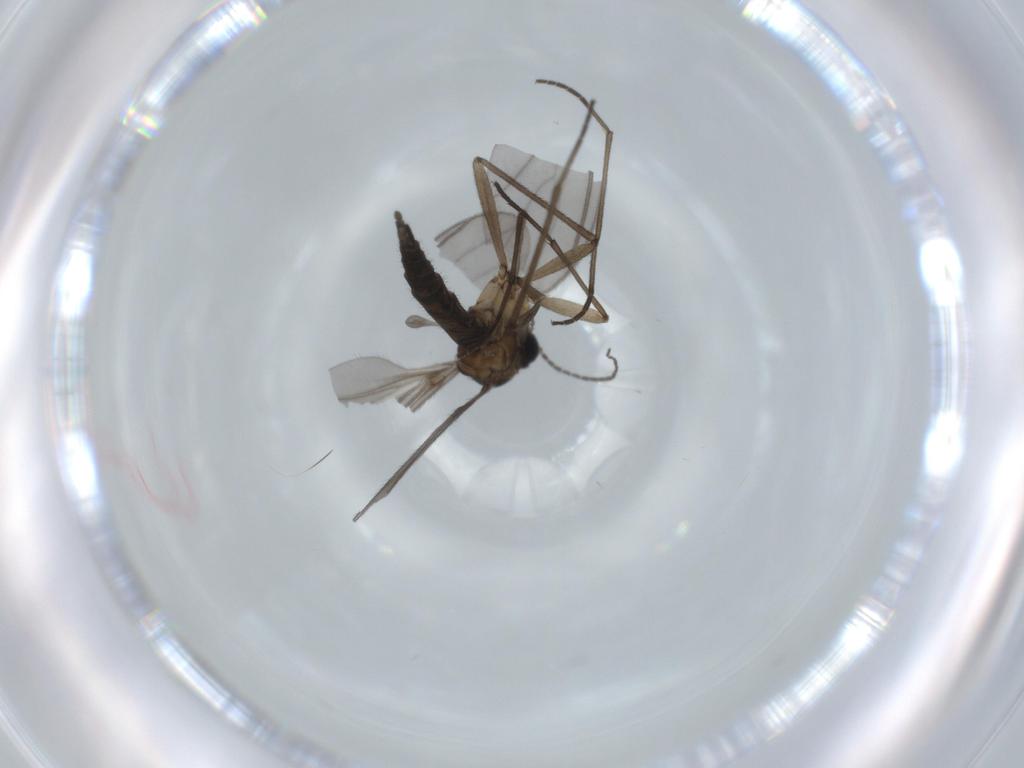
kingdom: Animalia
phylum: Arthropoda
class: Insecta
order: Diptera
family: Sciaridae
